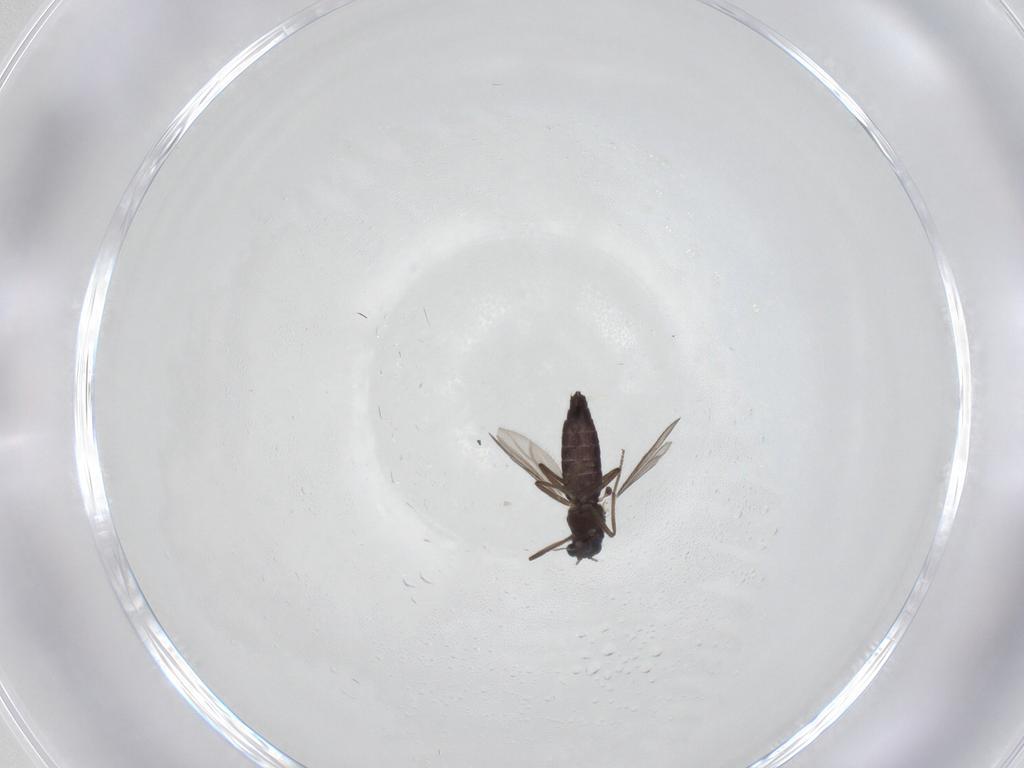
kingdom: Animalia
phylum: Arthropoda
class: Insecta
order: Diptera
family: Chironomidae
